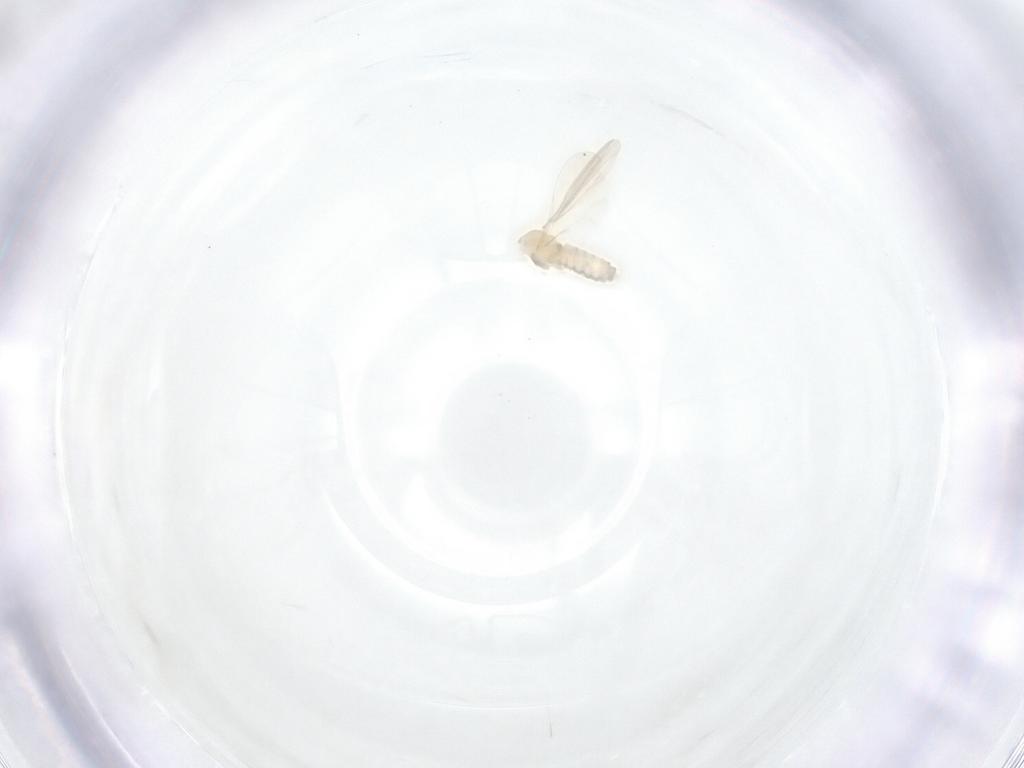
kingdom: Animalia
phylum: Arthropoda
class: Insecta
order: Diptera
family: Cecidomyiidae
